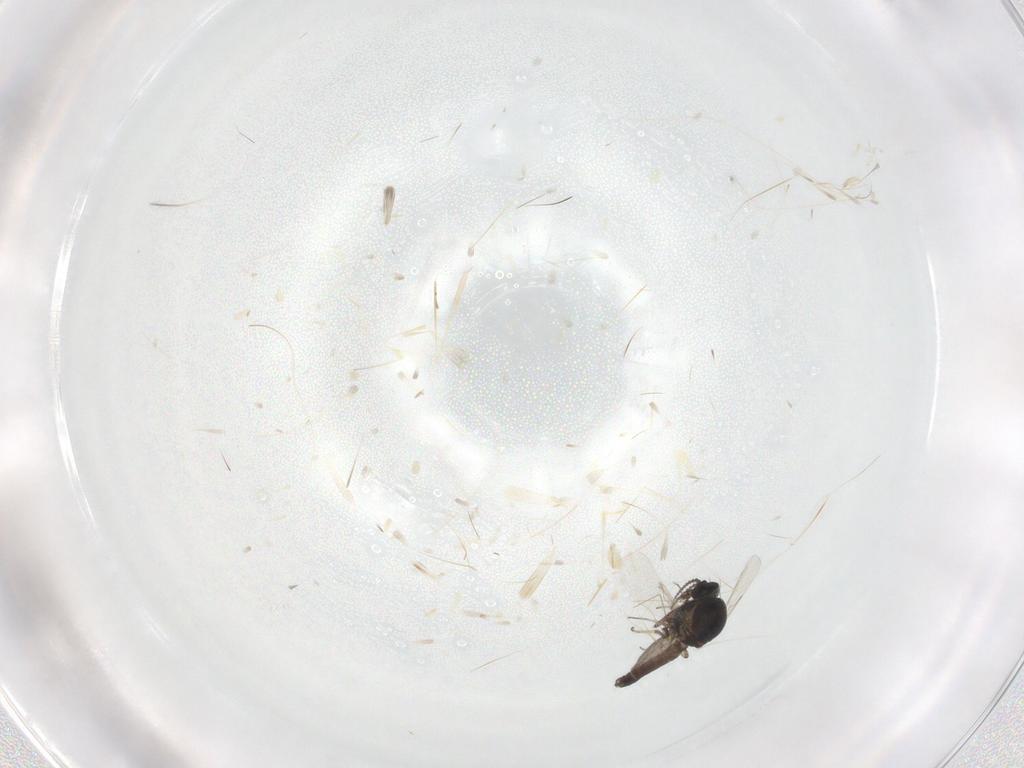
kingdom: Animalia
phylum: Arthropoda
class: Insecta
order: Diptera
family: Ceratopogonidae
